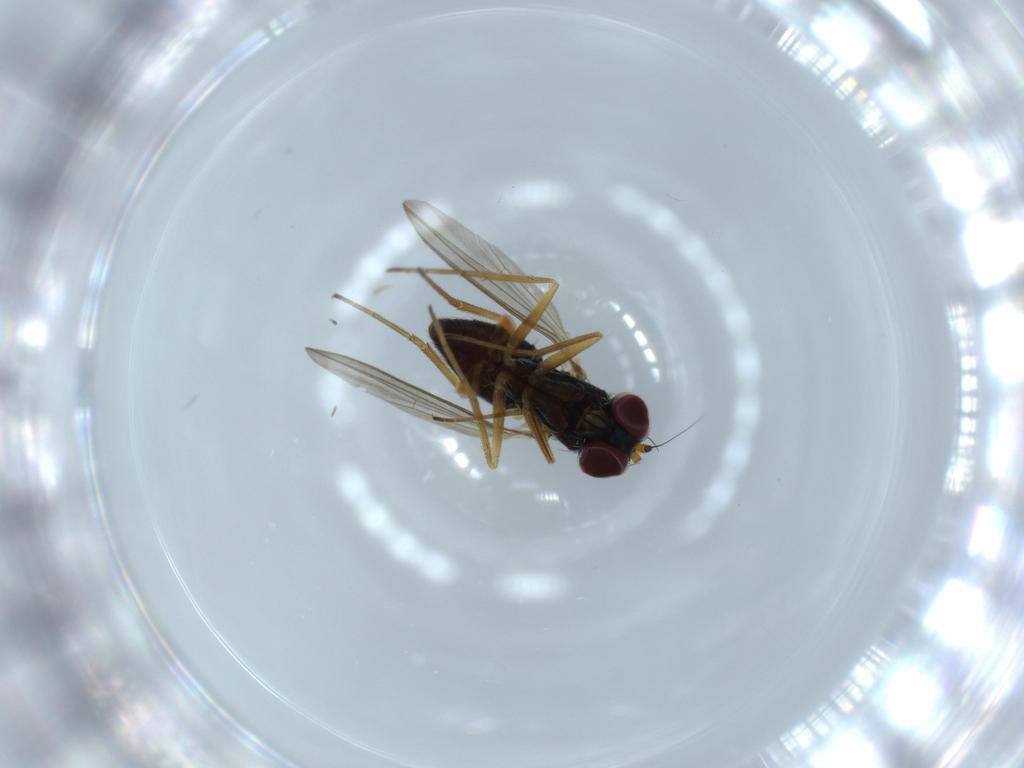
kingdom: Animalia
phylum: Arthropoda
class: Insecta
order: Diptera
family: Dolichopodidae
